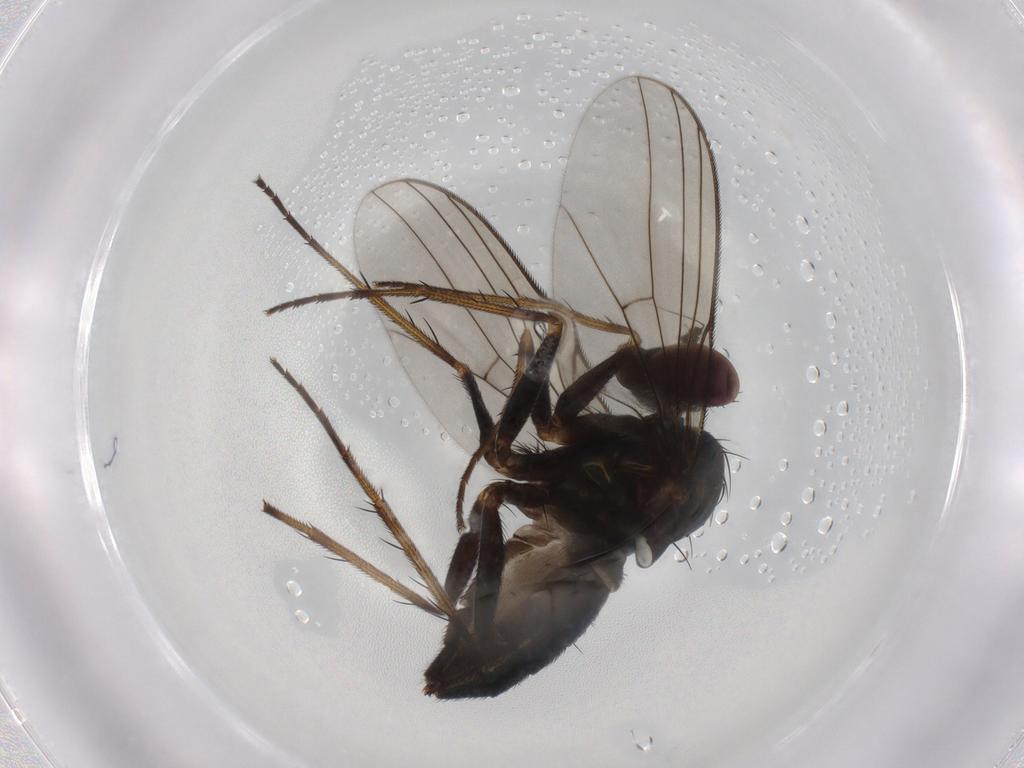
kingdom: Animalia
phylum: Arthropoda
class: Insecta
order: Diptera
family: Dolichopodidae
